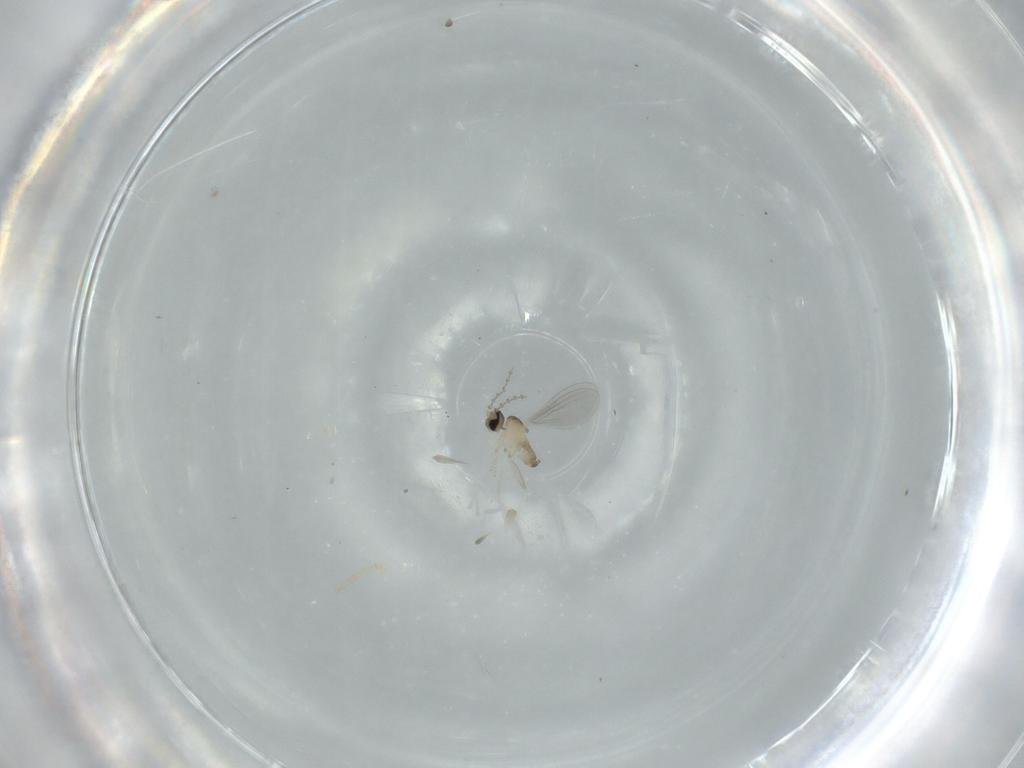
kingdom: Animalia
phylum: Arthropoda
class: Insecta
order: Diptera
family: Cecidomyiidae
